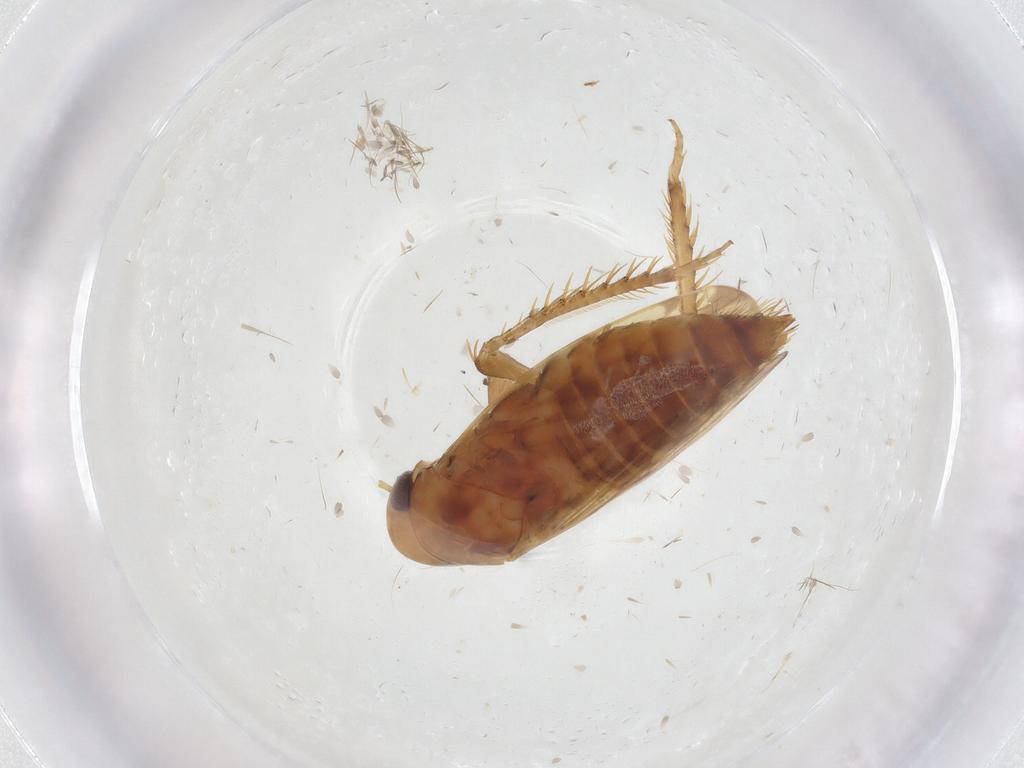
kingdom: Animalia
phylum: Arthropoda
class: Insecta
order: Hemiptera
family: Cicadellidae
